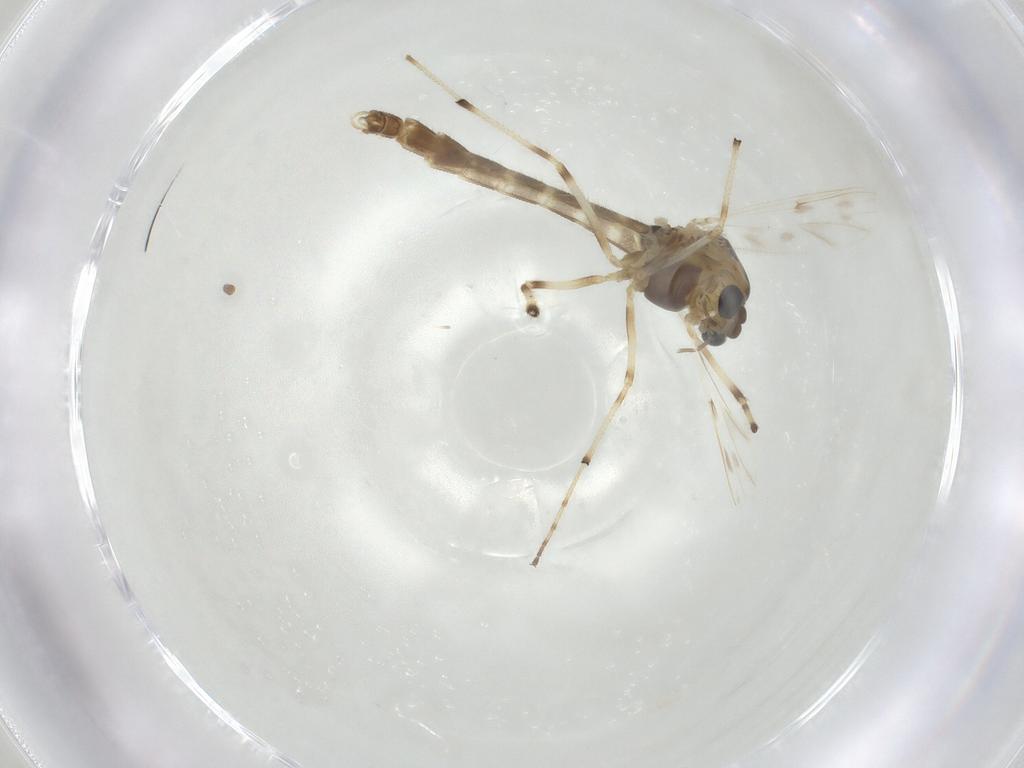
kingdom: Animalia
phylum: Arthropoda
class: Insecta
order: Diptera
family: Chironomidae
